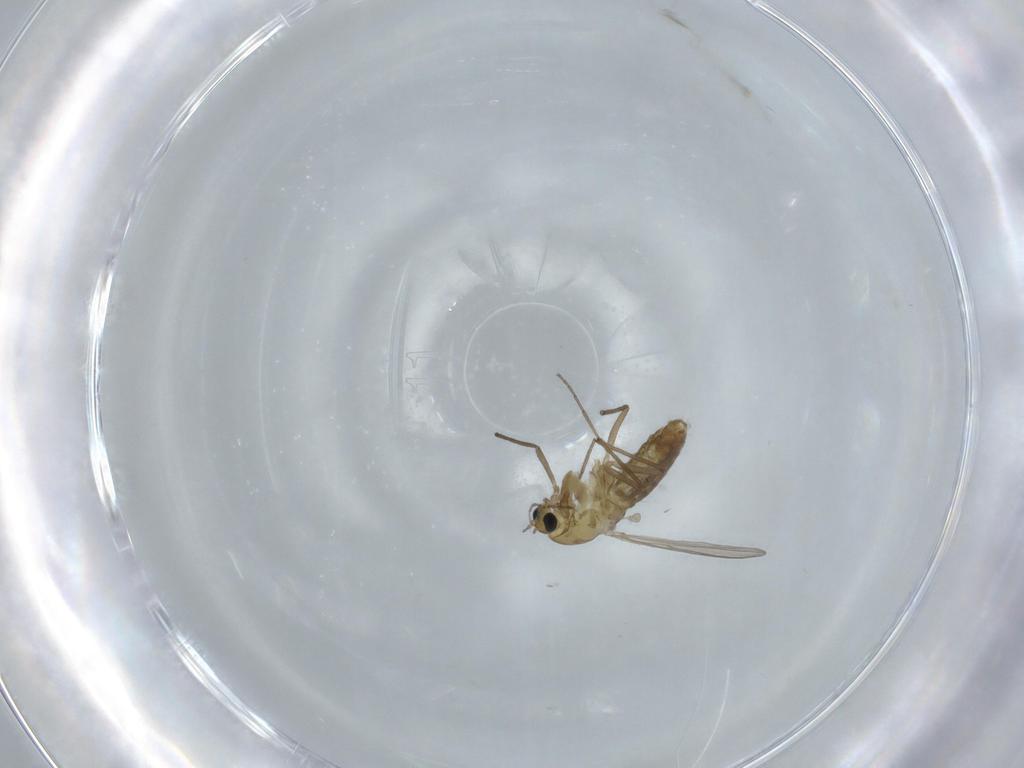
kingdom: Animalia
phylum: Arthropoda
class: Insecta
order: Diptera
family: Chironomidae
